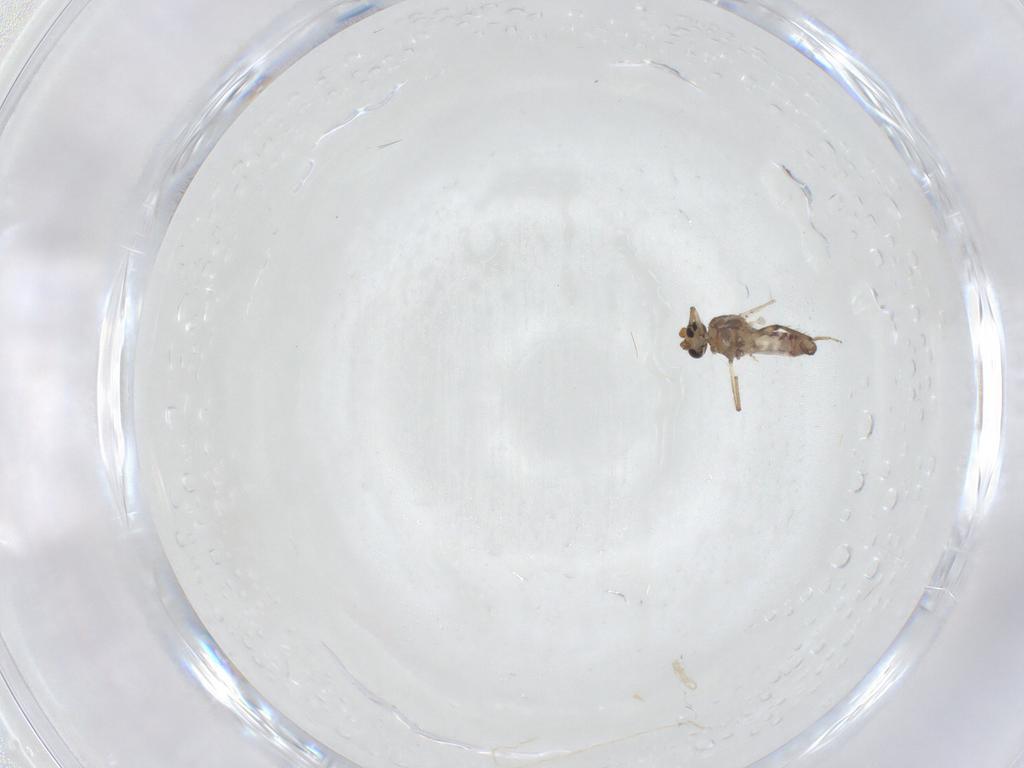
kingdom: Animalia
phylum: Arthropoda
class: Insecta
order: Diptera
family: Ceratopogonidae
